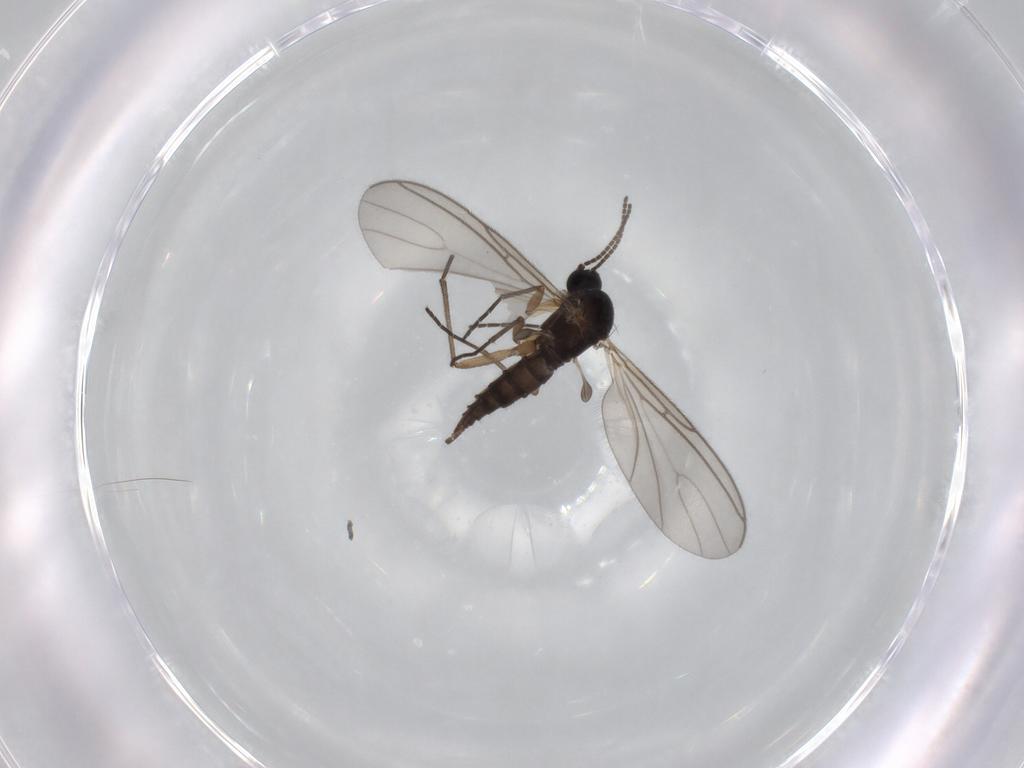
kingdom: Animalia
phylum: Arthropoda
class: Insecta
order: Diptera
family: Sciaridae
